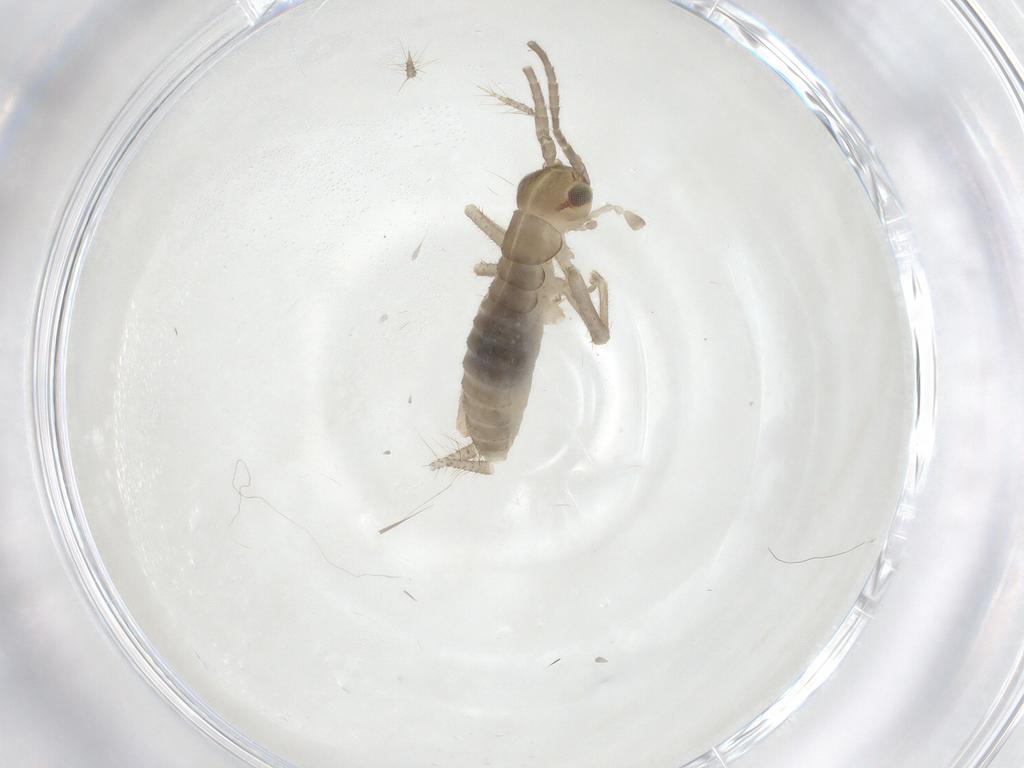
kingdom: Animalia
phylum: Arthropoda
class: Insecta
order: Orthoptera
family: Gryllidae
